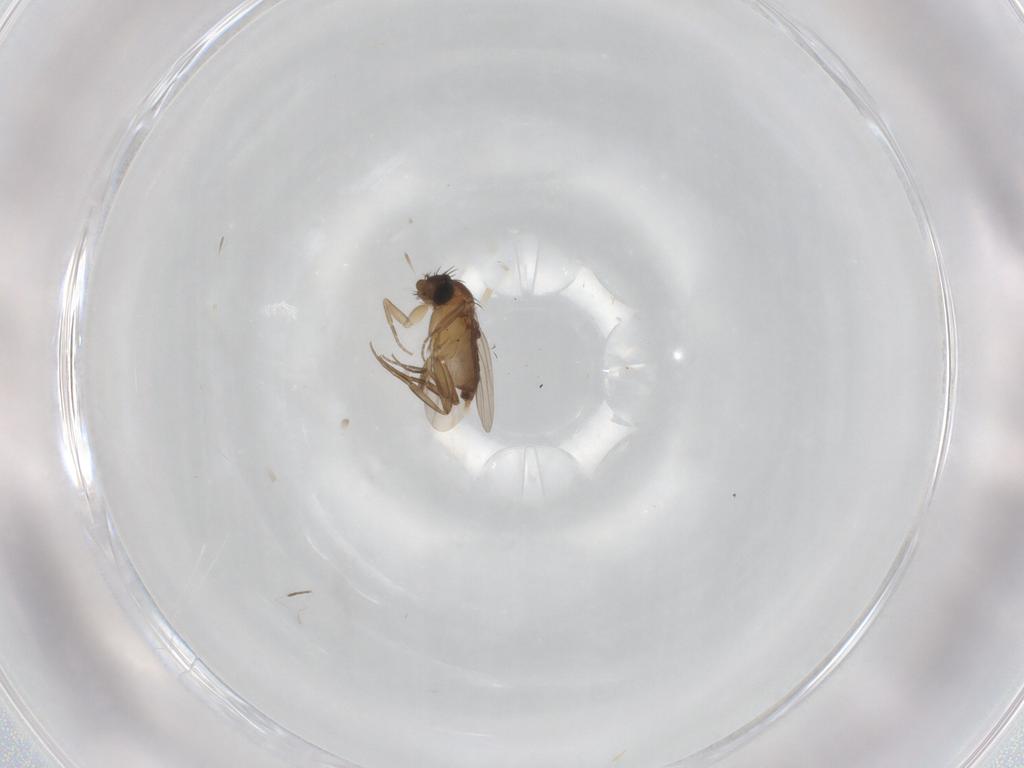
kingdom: Animalia
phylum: Arthropoda
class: Insecta
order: Diptera
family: Phoridae
